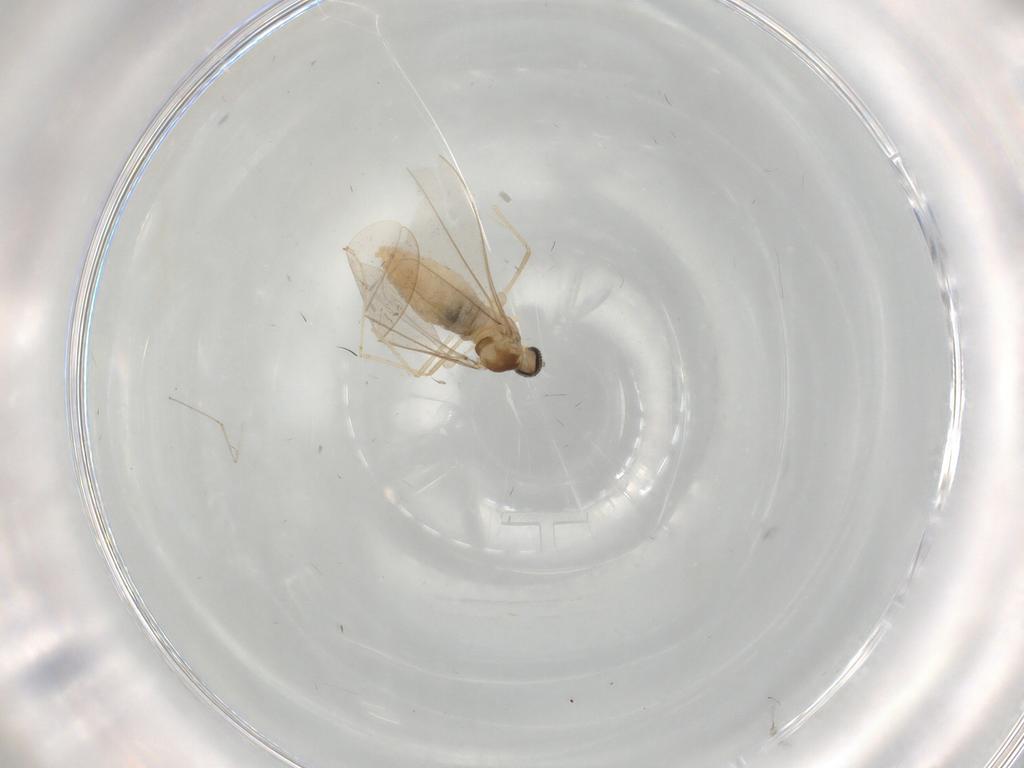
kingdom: Animalia
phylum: Arthropoda
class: Insecta
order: Diptera
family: Cecidomyiidae
